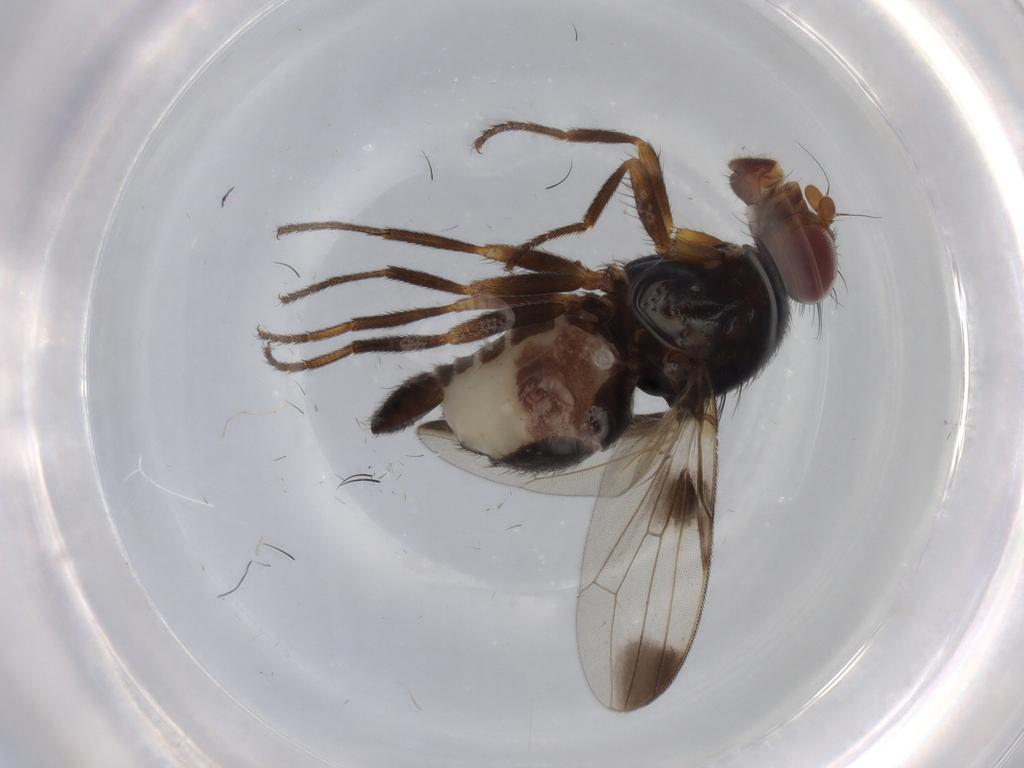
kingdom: Animalia
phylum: Arthropoda
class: Insecta
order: Diptera
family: Ulidiidae
